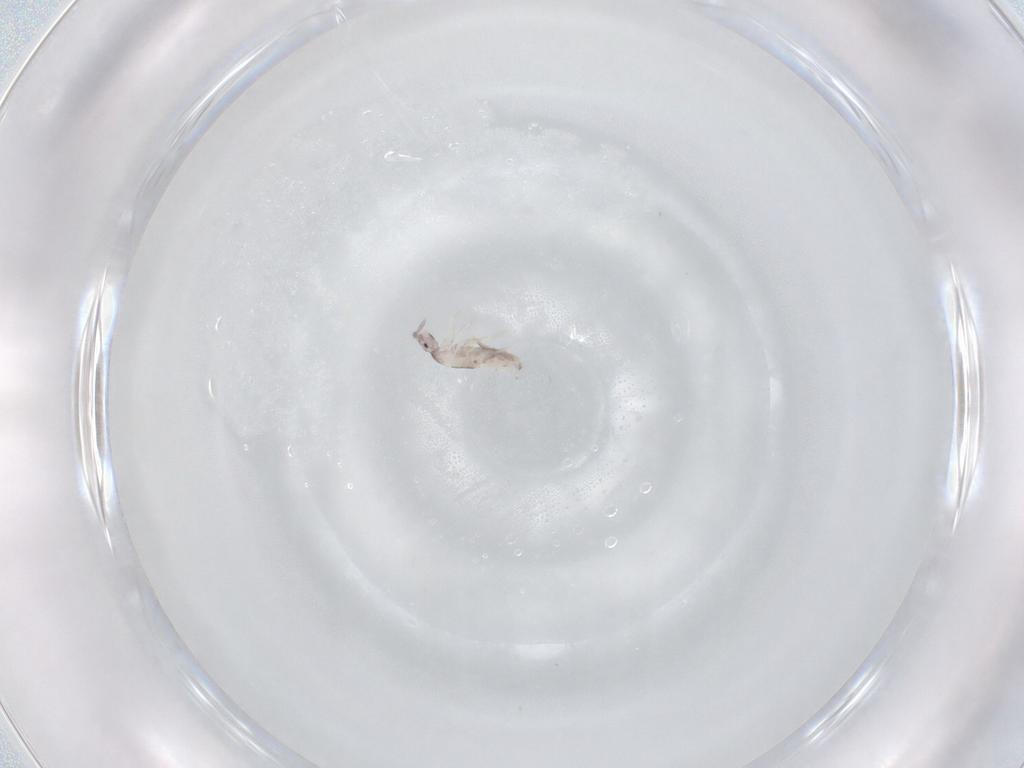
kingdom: Animalia
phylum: Arthropoda
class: Collembola
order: Entomobryomorpha
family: Entomobryidae
